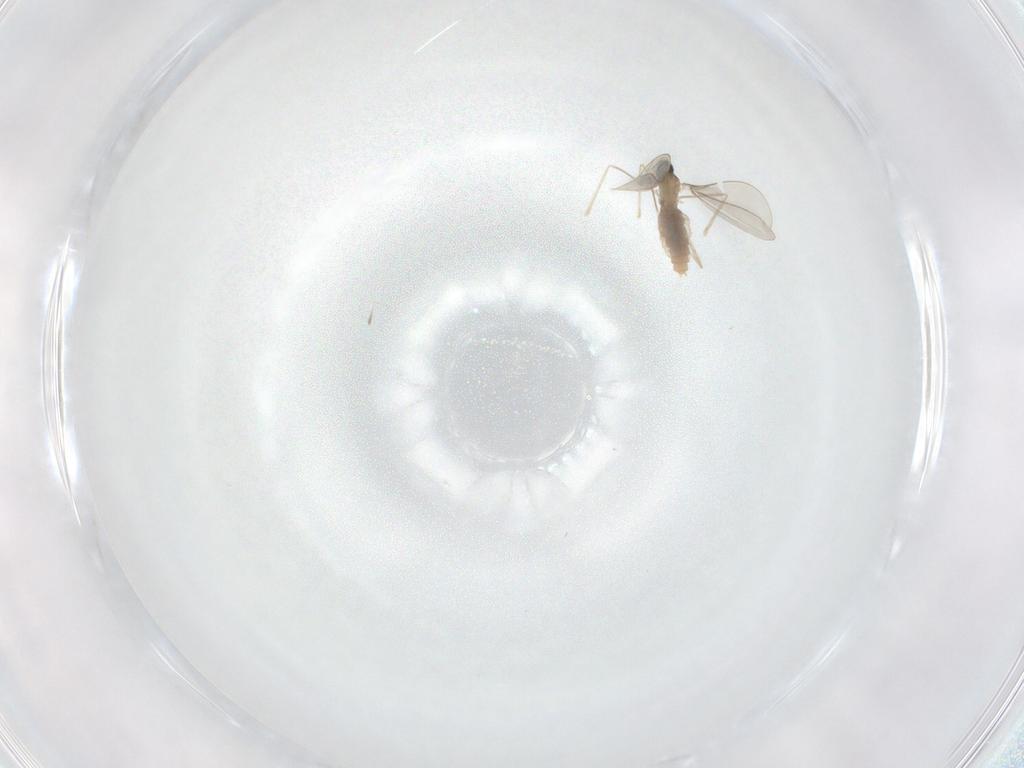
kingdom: Animalia
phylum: Arthropoda
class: Insecta
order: Diptera
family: Cecidomyiidae
